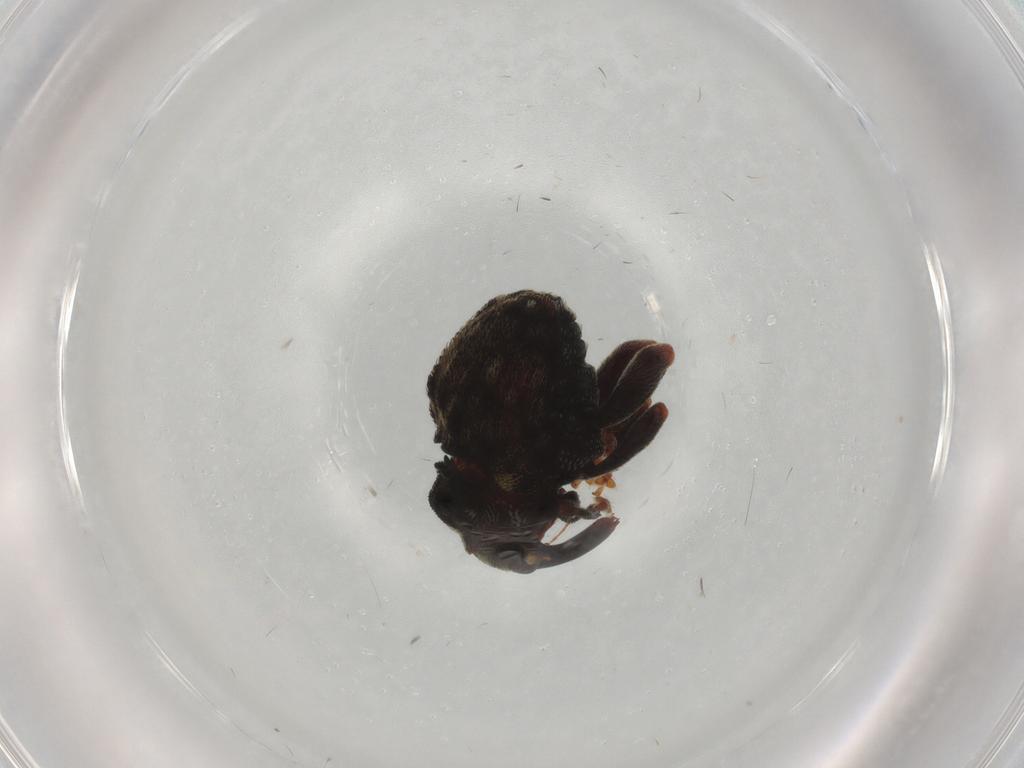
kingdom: Animalia
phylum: Arthropoda
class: Insecta
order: Coleoptera
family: Curculionidae
